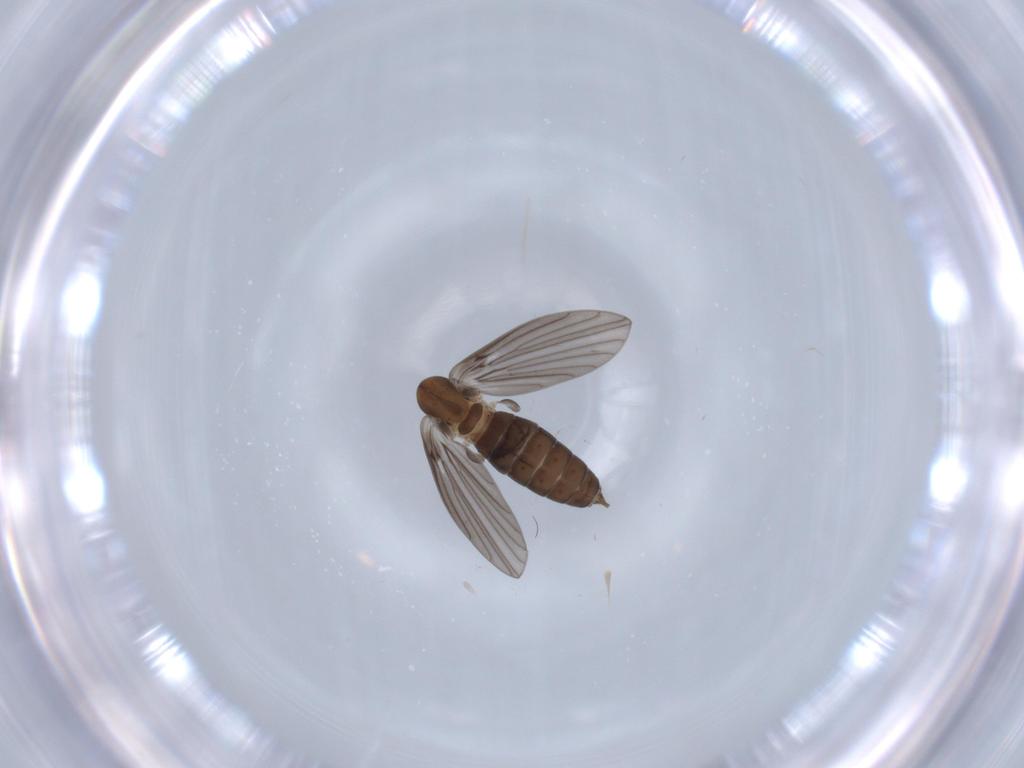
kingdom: Animalia
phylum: Arthropoda
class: Insecta
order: Diptera
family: Psychodidae
